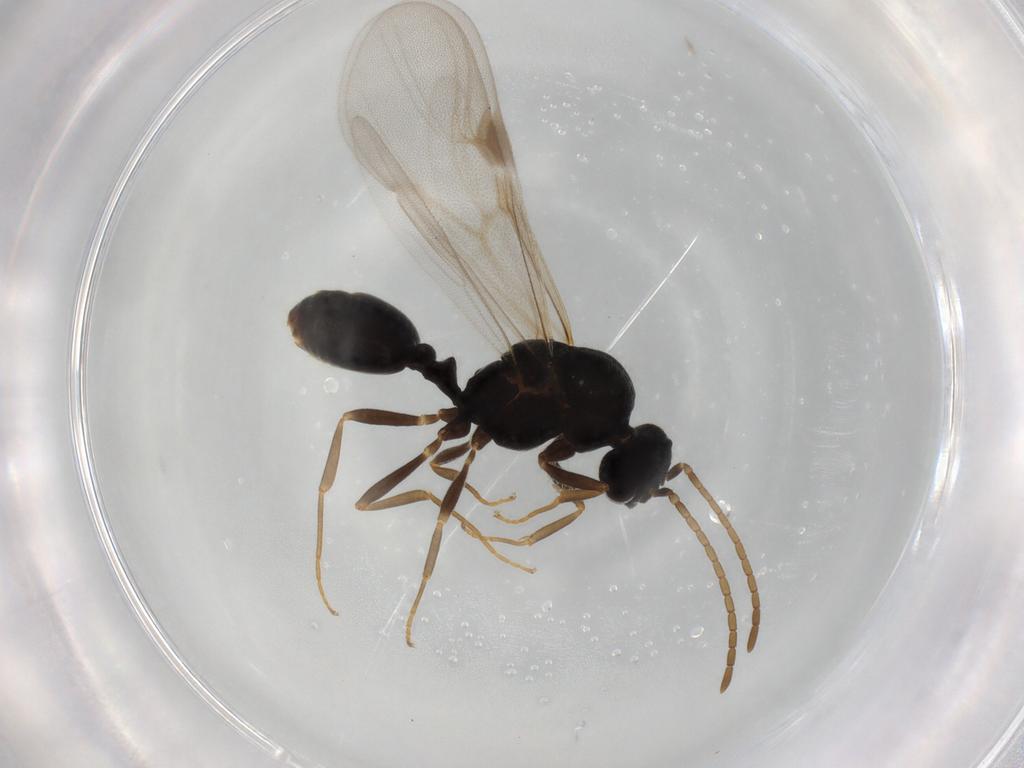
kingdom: Animalia
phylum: Arthropoda
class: Insecta
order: Hymenoptera
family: Formicidae
